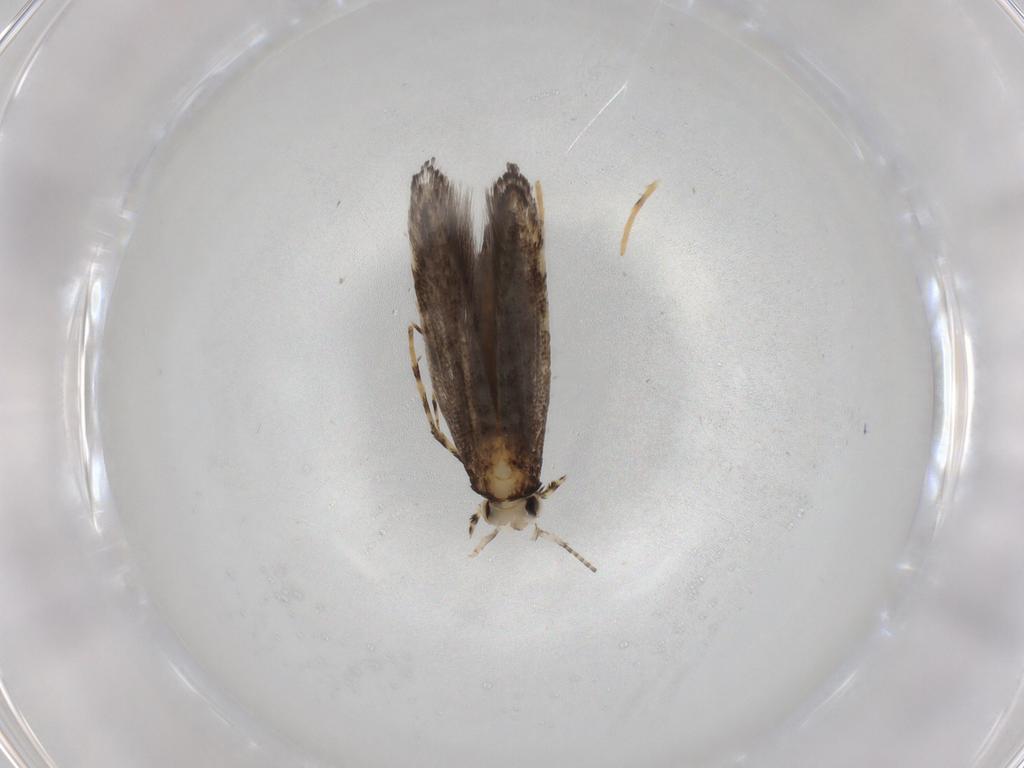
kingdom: Animalia
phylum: Arthropoda
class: Insecta
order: Lepidoptera
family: Gracillariidae
